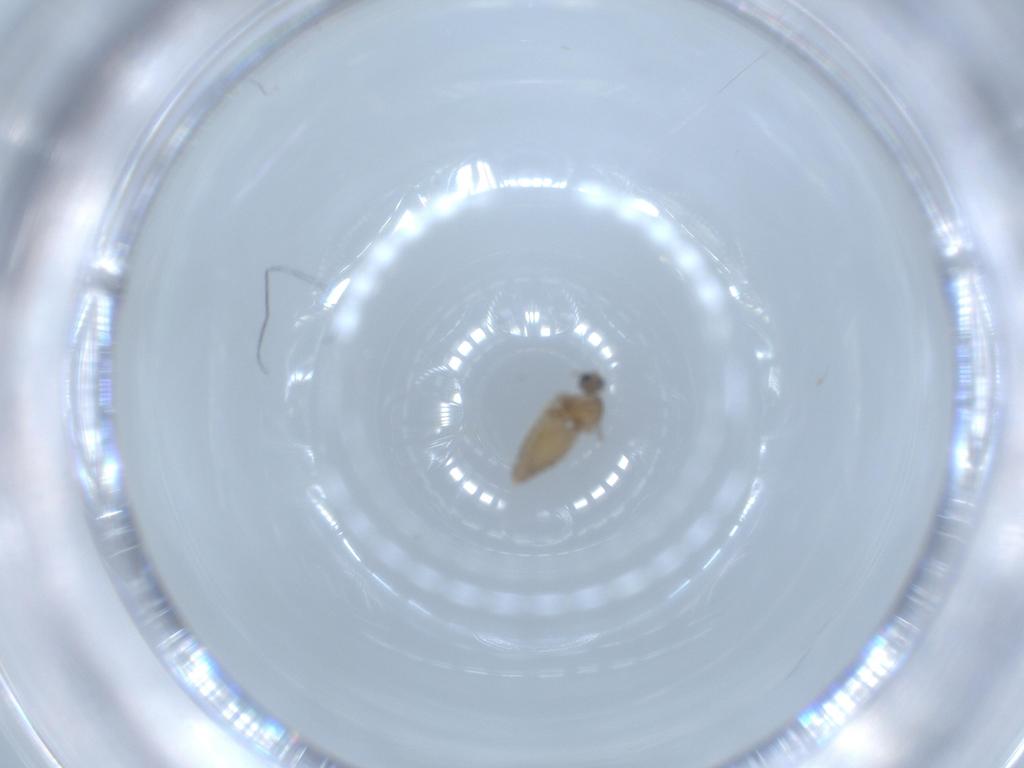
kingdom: Animalia
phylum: Arthropoda
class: Insecta
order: Diptera
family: Cecidomyiidae
